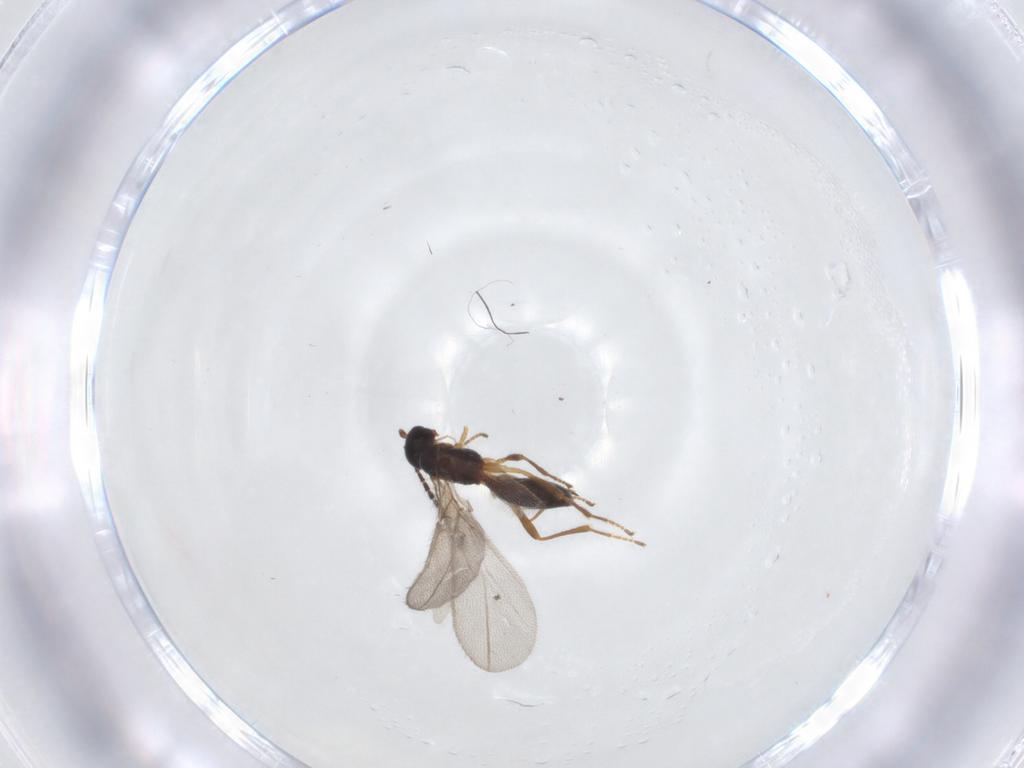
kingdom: Animalia
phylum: Arthropoda
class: Insecta
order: Hymenoptera
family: Braconidae
